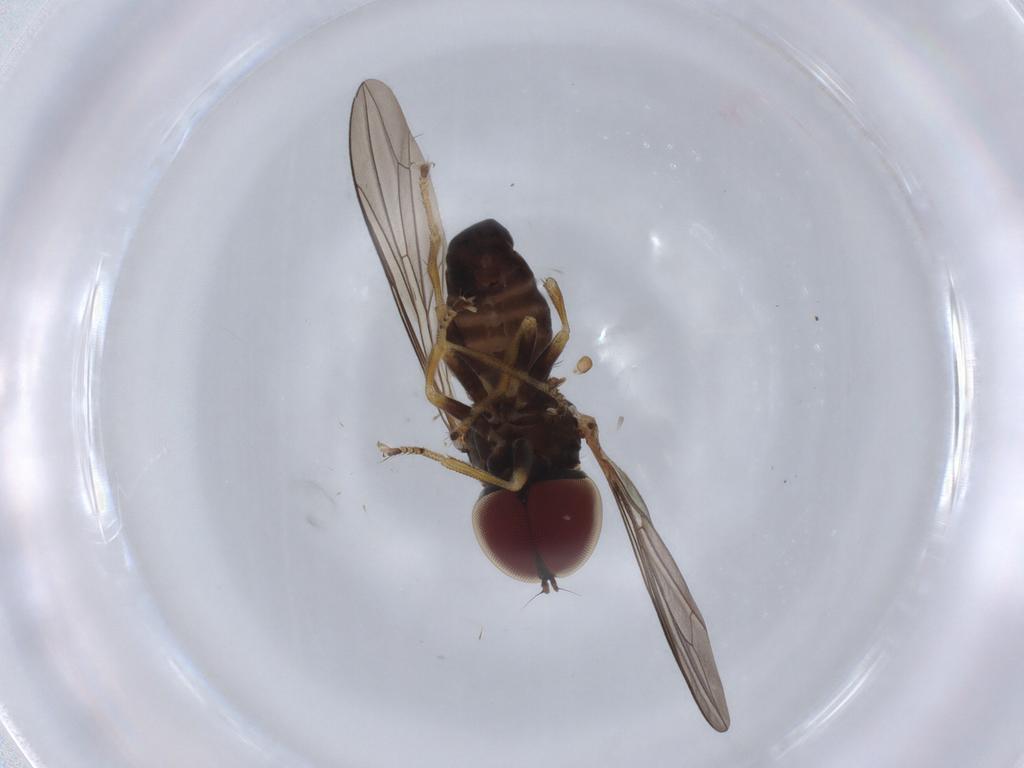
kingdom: Animalia
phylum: Arthropoda
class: Insecta
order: Diptera
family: Pipunculidae
